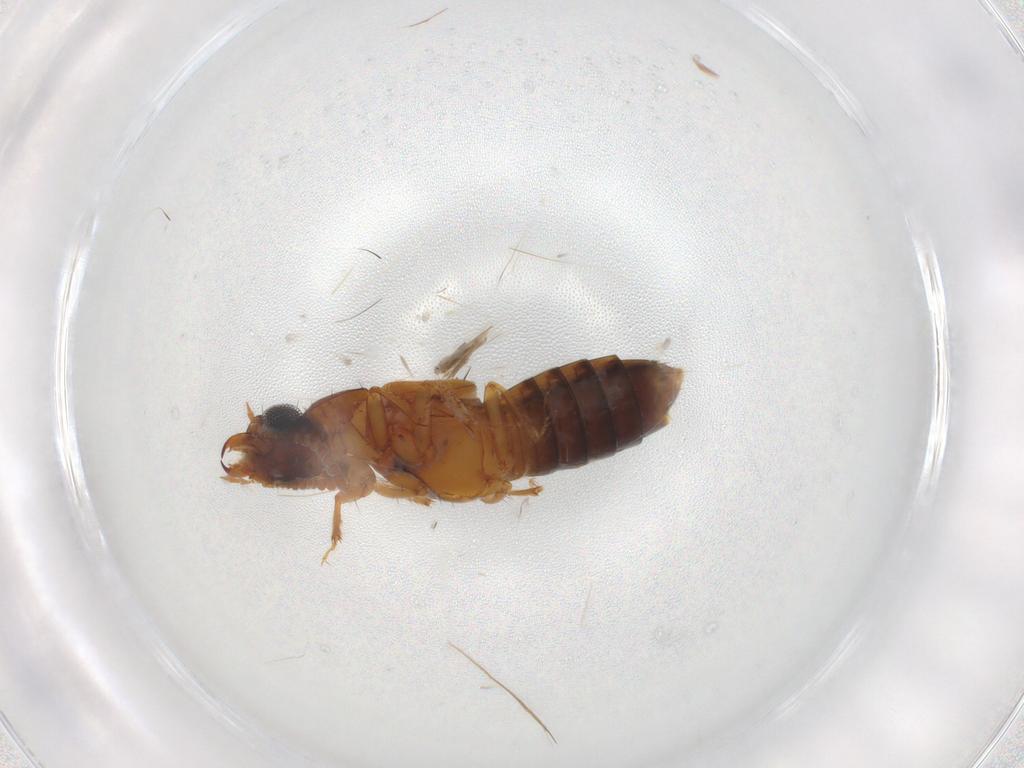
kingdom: Animalia
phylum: Arthropoda
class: Insecta
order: Coleoptera
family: Staphylinidae
